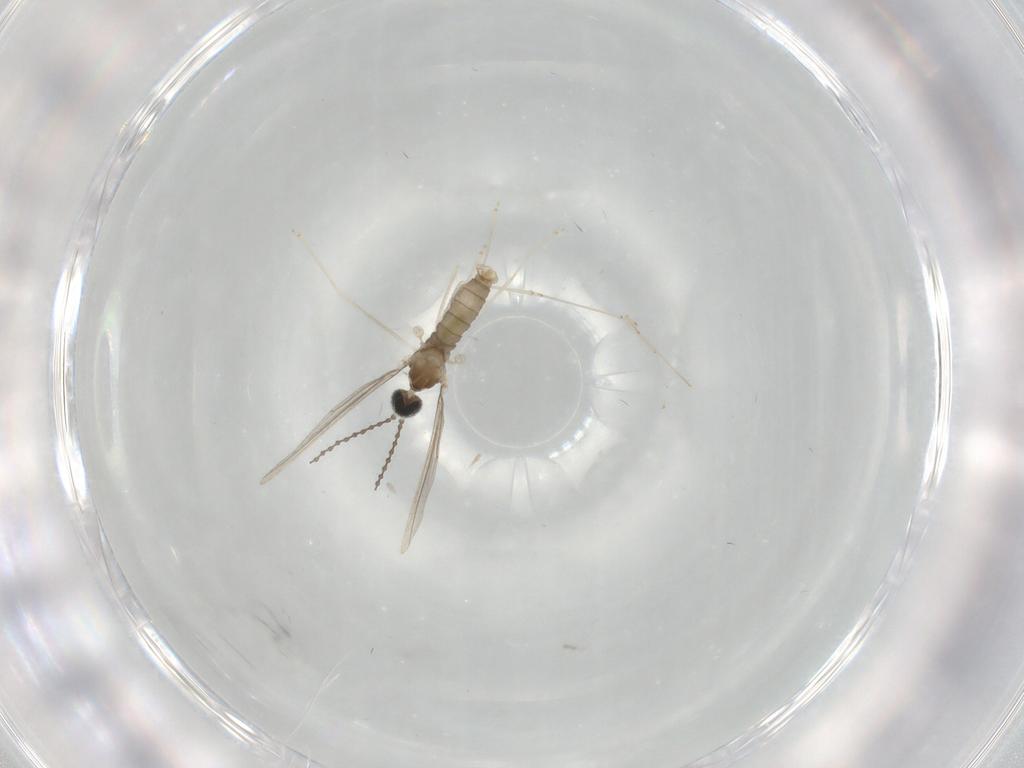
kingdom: Animalia
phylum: Arthropoda
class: Insecta
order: Diptera
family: Cecidomyiidae
